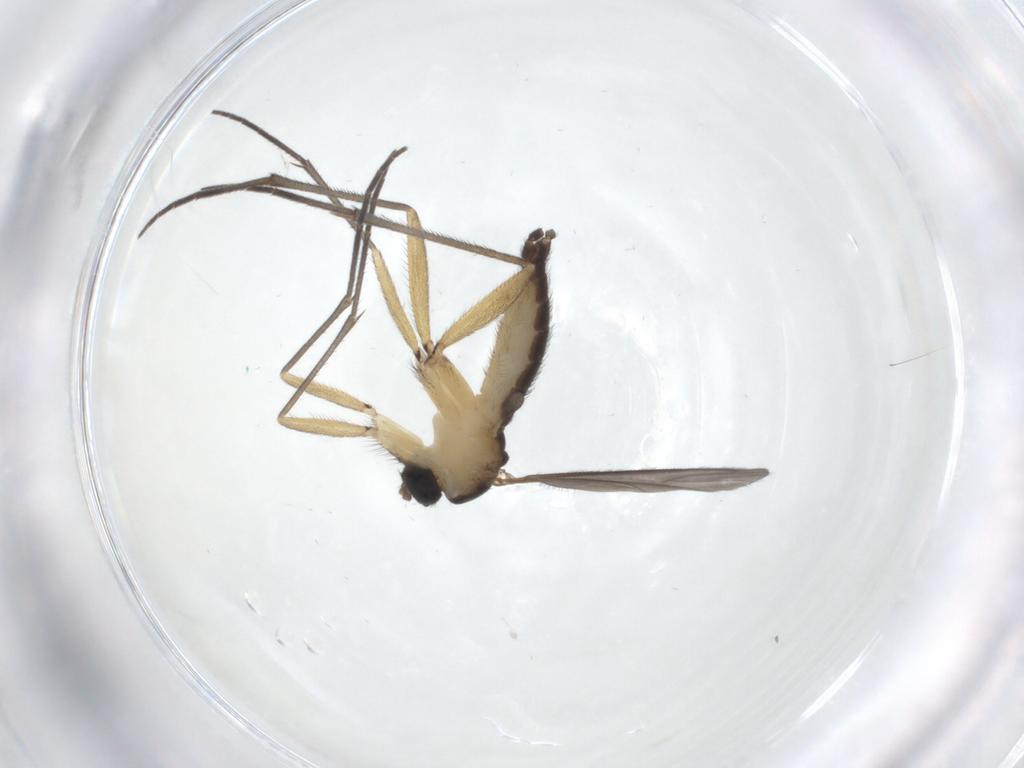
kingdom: Animalia
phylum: Arthropoda
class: Insecta
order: Diptera
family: Sciaridae
